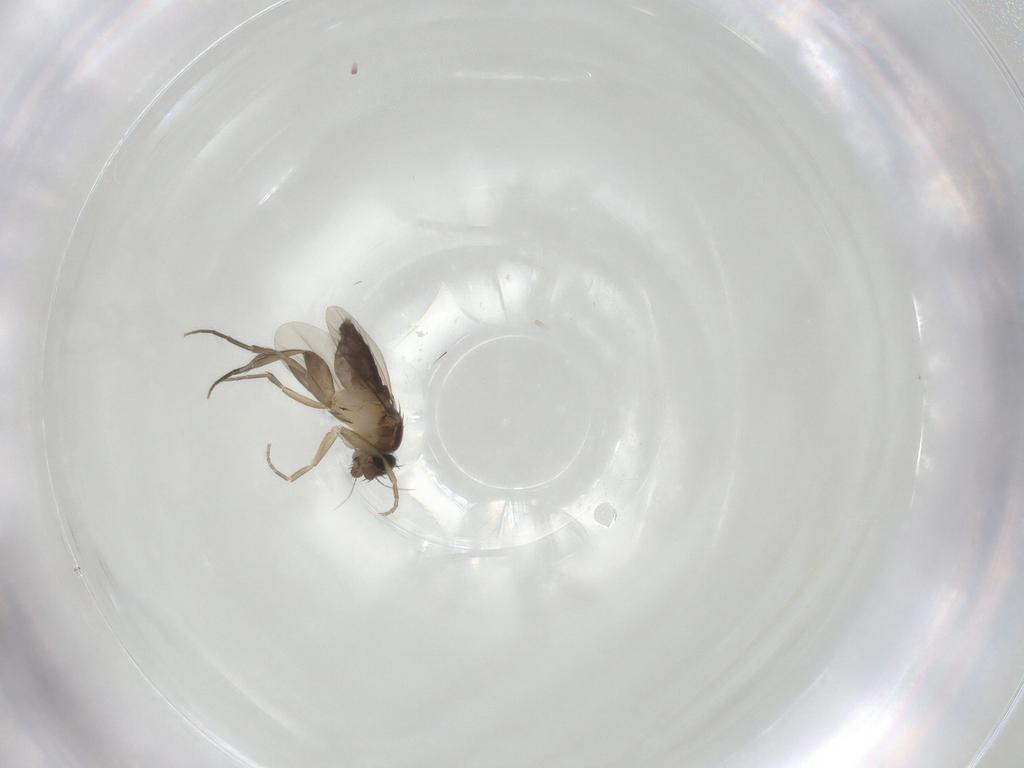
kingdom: Animalia
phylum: Arthropoda
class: Insecta
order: Diptera
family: Phoridae
